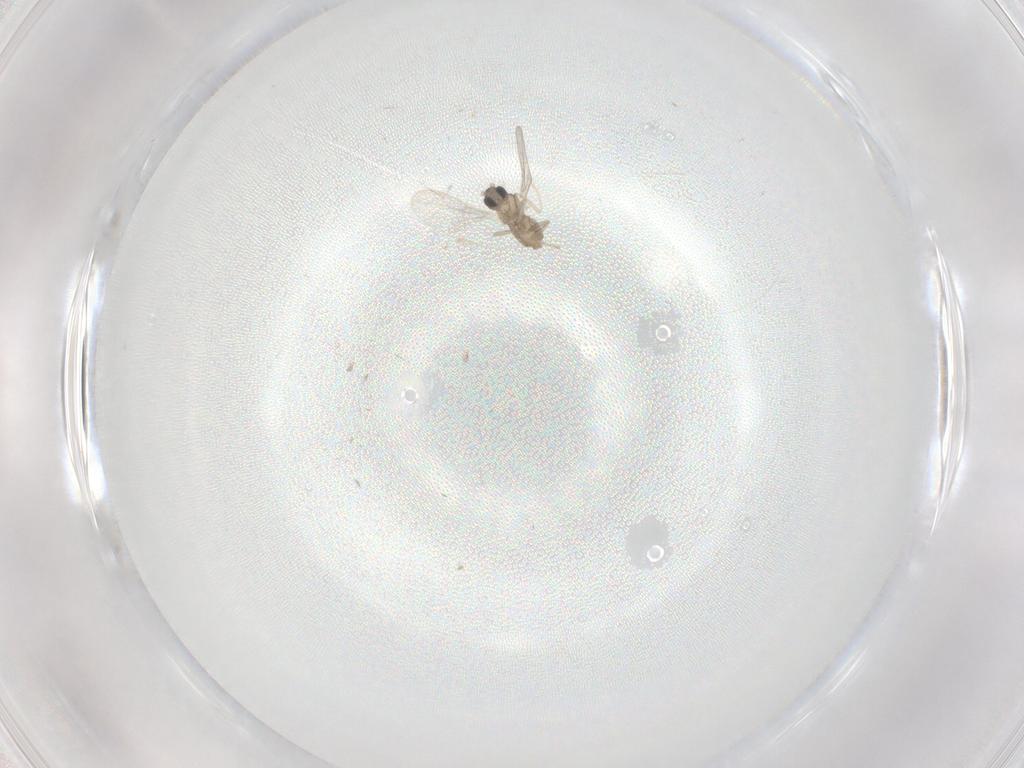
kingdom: Animalia
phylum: Arthropoda
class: Insecta
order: Diptera
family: Cecidomyiidae
